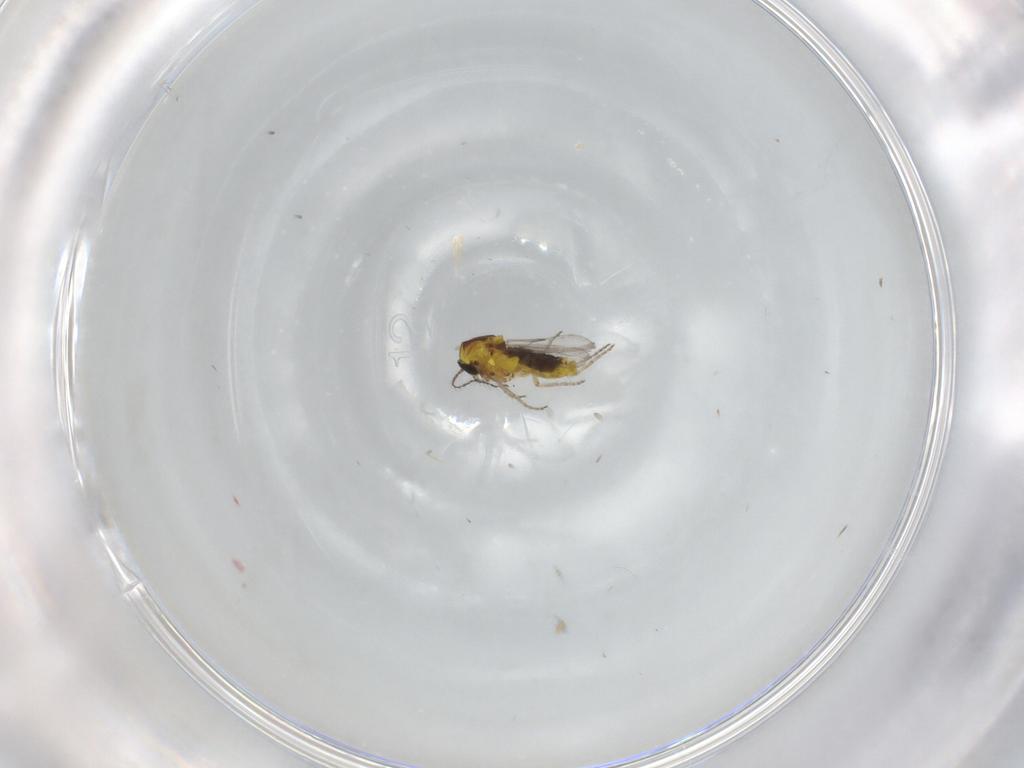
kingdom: Animalia
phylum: Arthropoda
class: Insecta
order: Diptera
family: Ceratopogonidae
